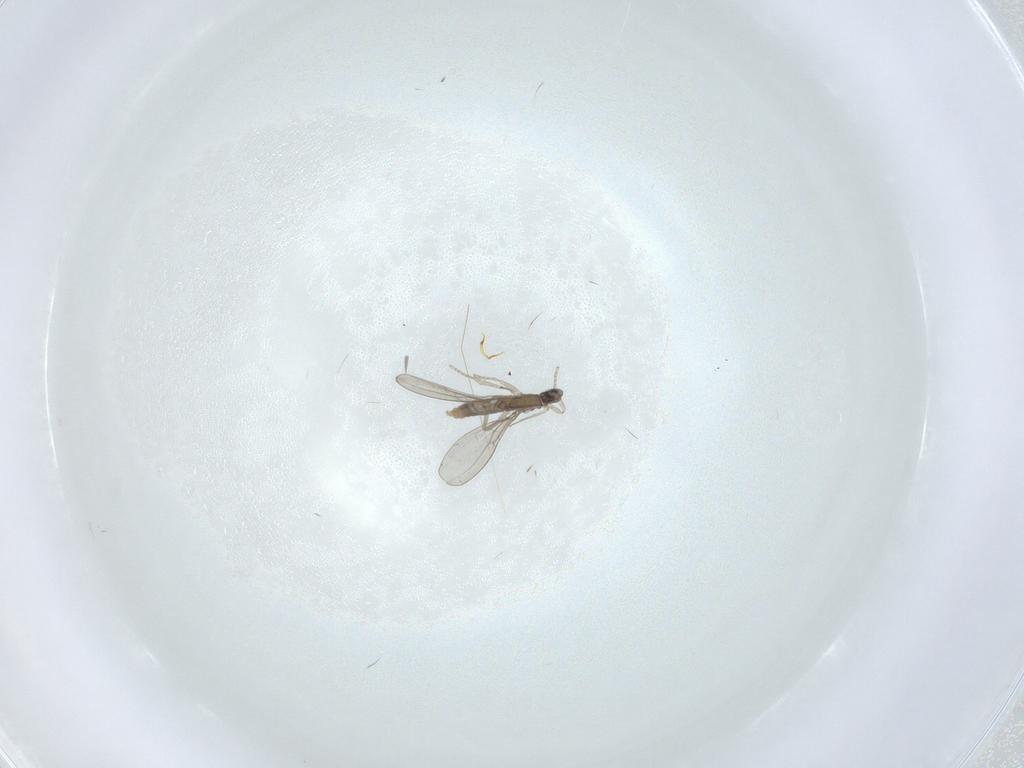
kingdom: Animalia
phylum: Arthropoda
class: Insecta
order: Diptera
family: Cecidomyiidae
